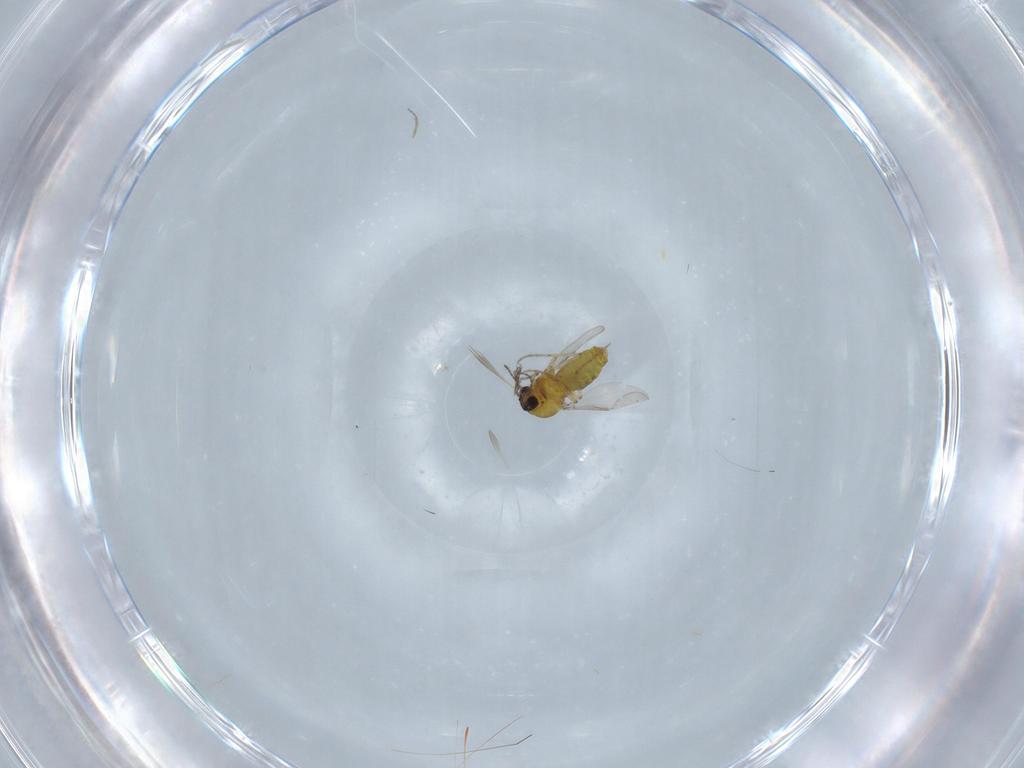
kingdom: Animalia
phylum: Arthropoda
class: Insecta
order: Diptera
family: Ceratopogonidae
